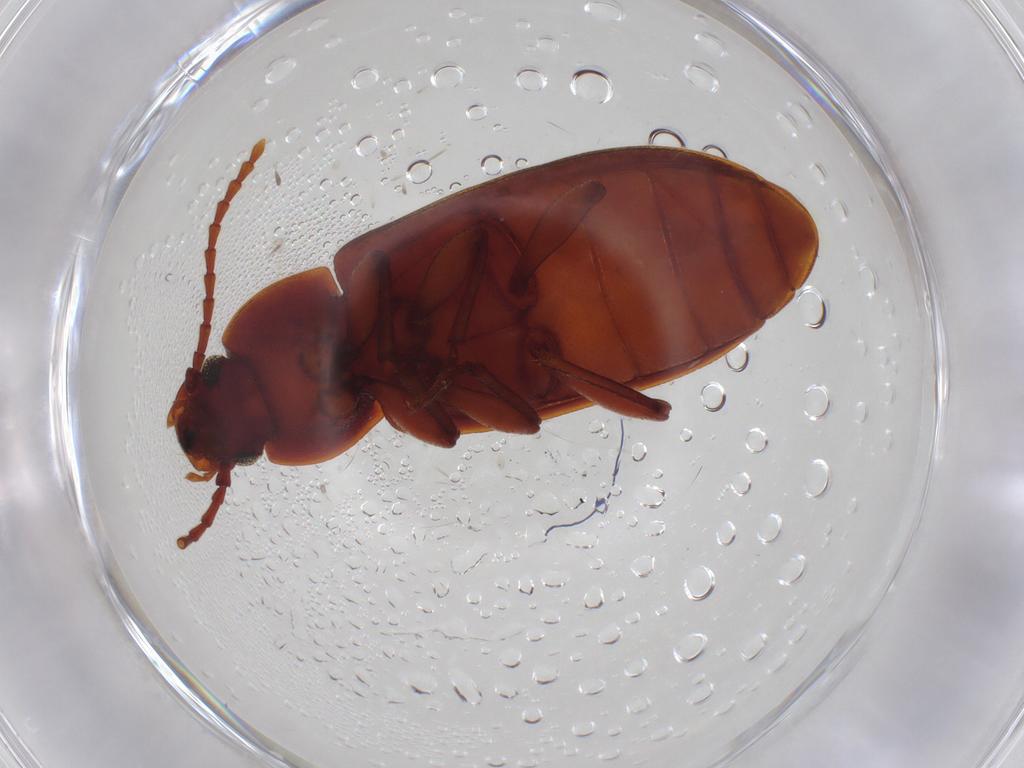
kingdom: Animalia
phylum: Arthropoda
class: Insecta
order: Coleoptera
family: Tenebrionidae
